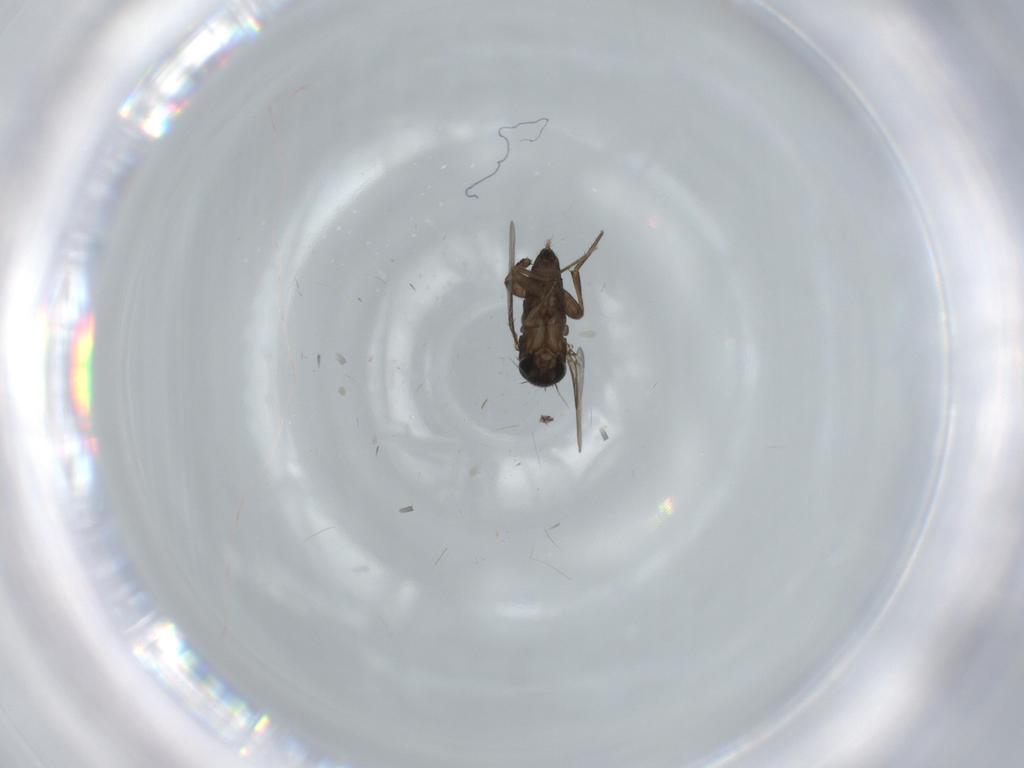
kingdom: Animalia
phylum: Arthropoda
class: Insecta
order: Diptera
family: Phoridae
